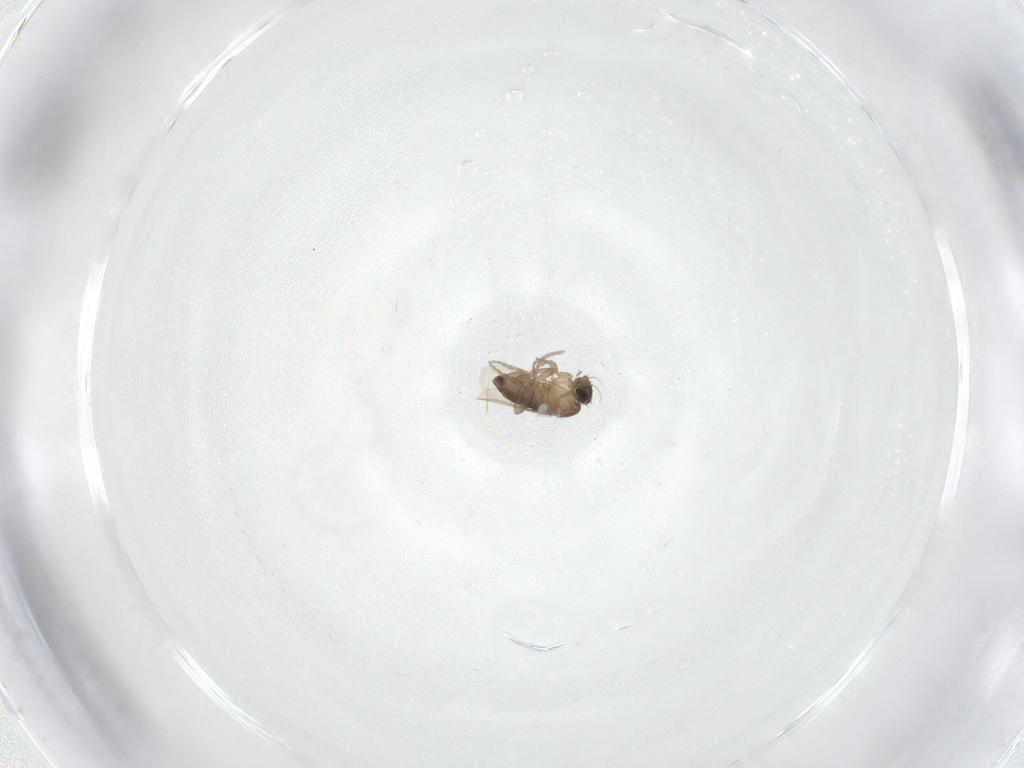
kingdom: Animalia
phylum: Arthropoda
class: Insecta
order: Diptera
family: Phoridae
